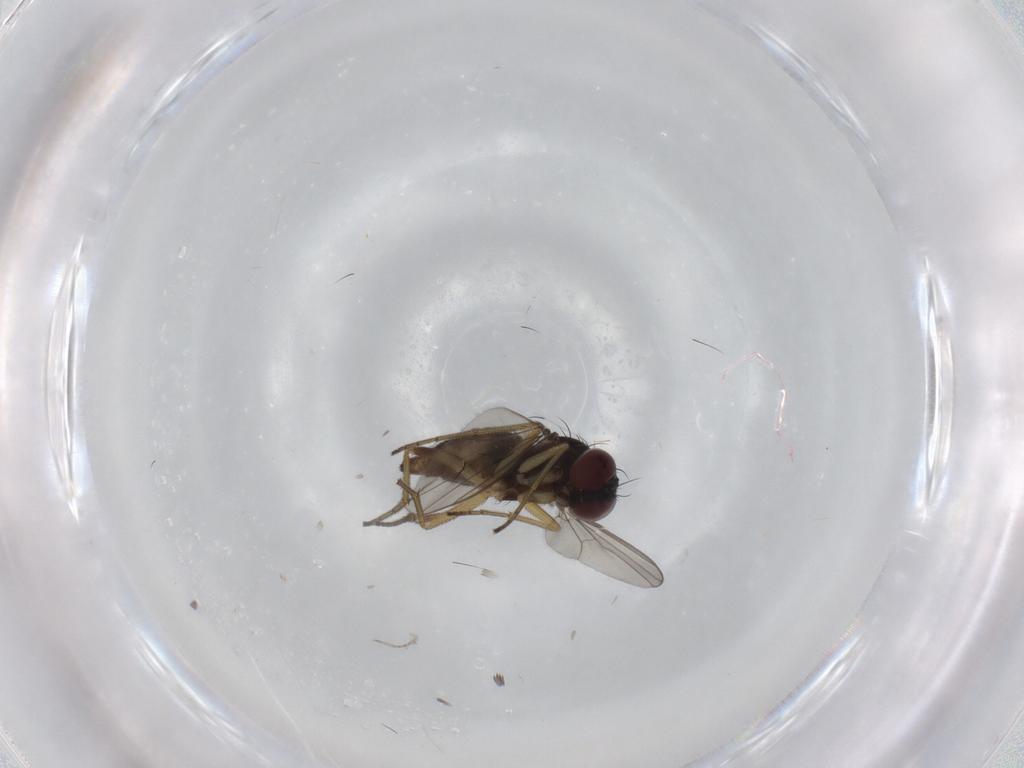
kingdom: Animalia
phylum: Arthropoda
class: Insecta
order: Diptera
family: Dolichopodidae
